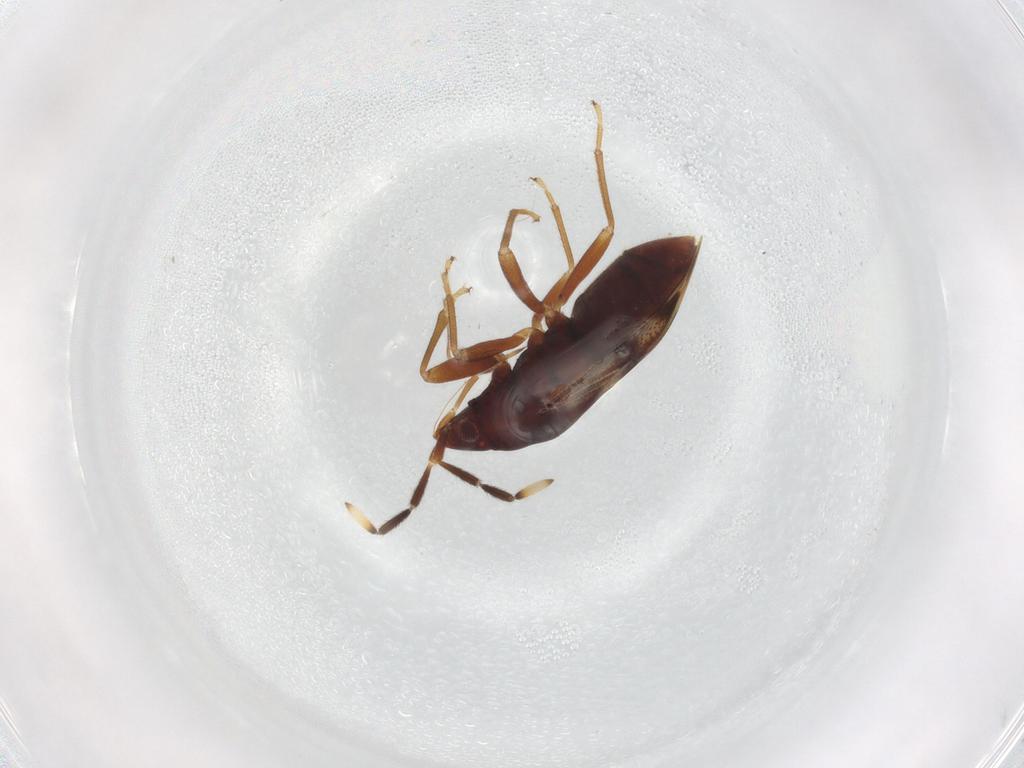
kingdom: Animalia
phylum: Arthropoda
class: Insecta
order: Hemiptera
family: Rhyparochromidae
